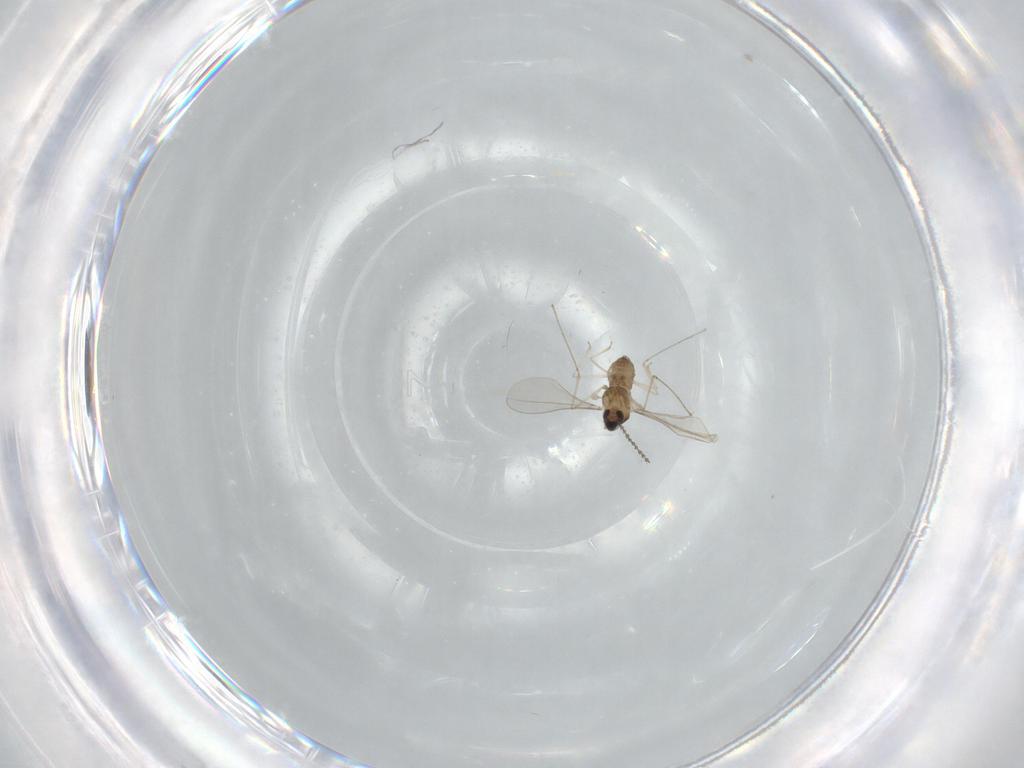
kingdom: Animalia
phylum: Arthropoda
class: Insecta
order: Diptera
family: Cecidomyiidae
